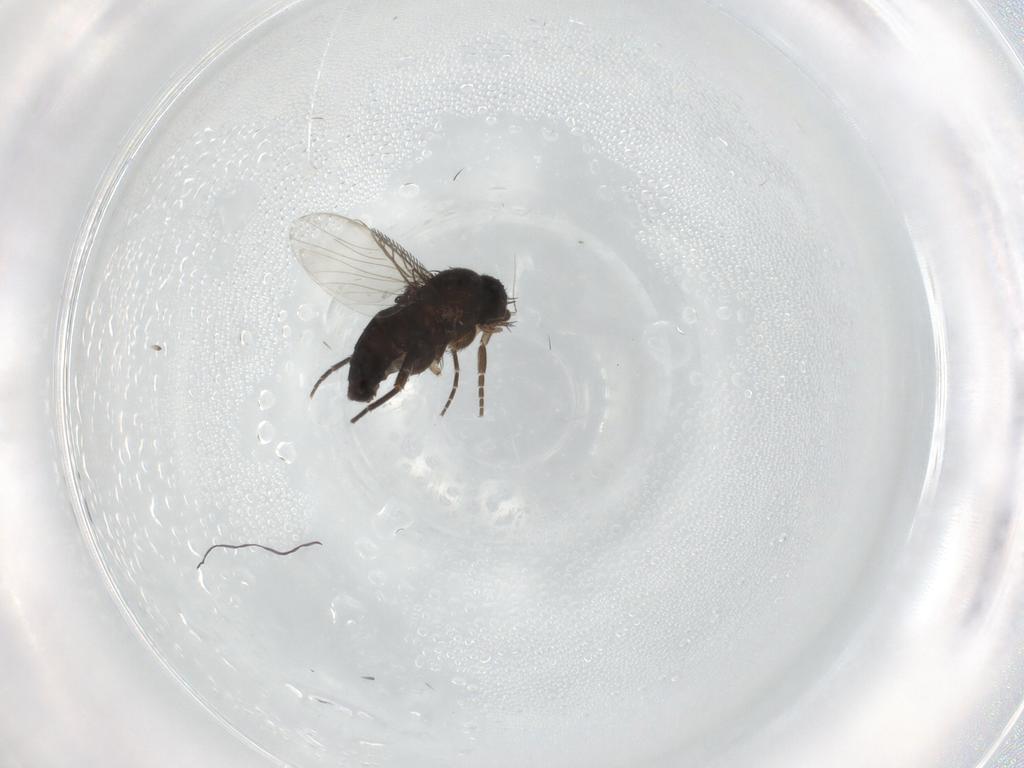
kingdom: Animalia
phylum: Arthropoda
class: Insecta
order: Diptera
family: Phoridae
